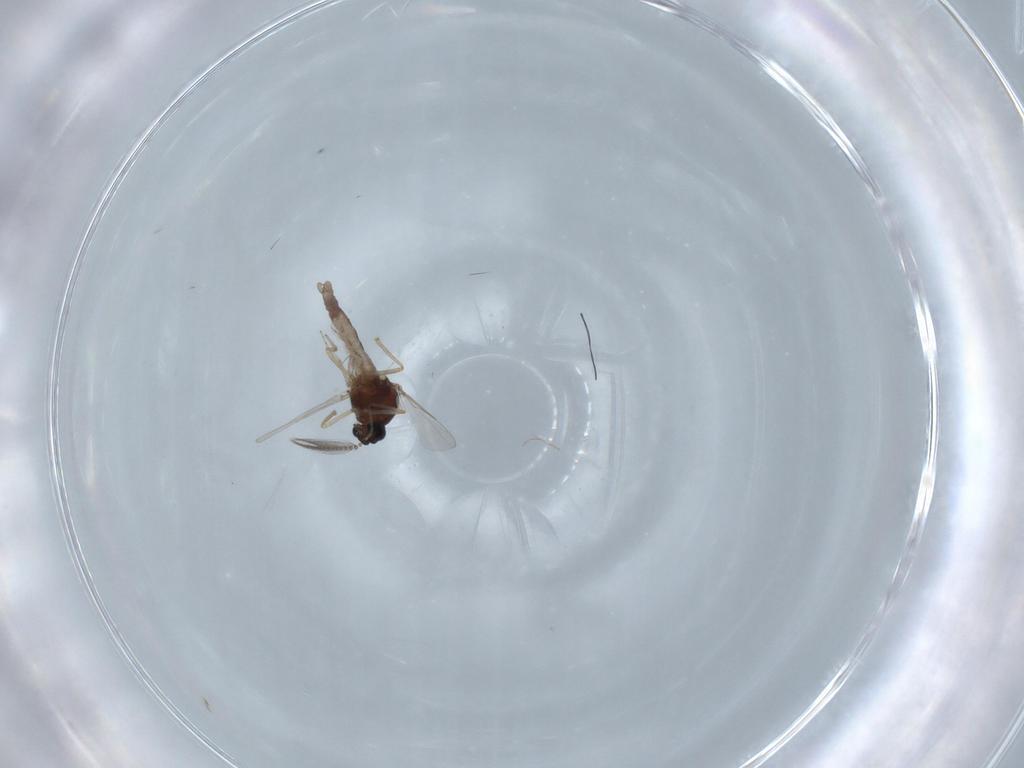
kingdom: Animalia
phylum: Arthropoda
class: Insecta
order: Diptera
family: Ceratopogonidae
